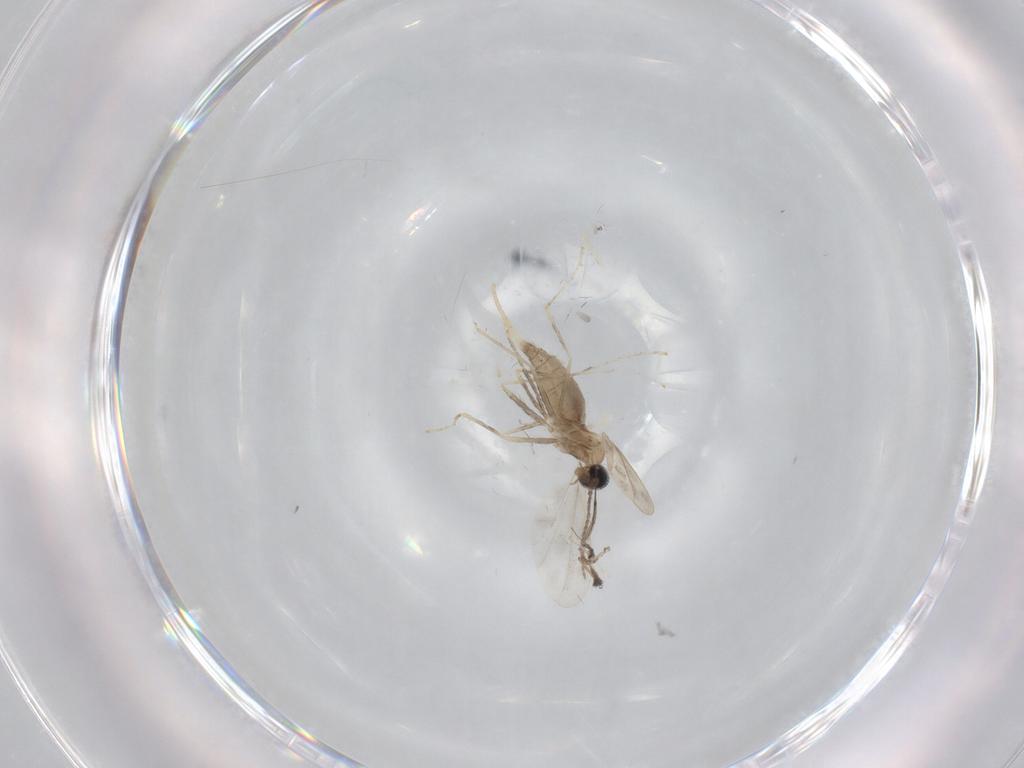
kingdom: Animalia
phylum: Arthropoda
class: Insecta
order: Diptera
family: Cecidomyiidae
